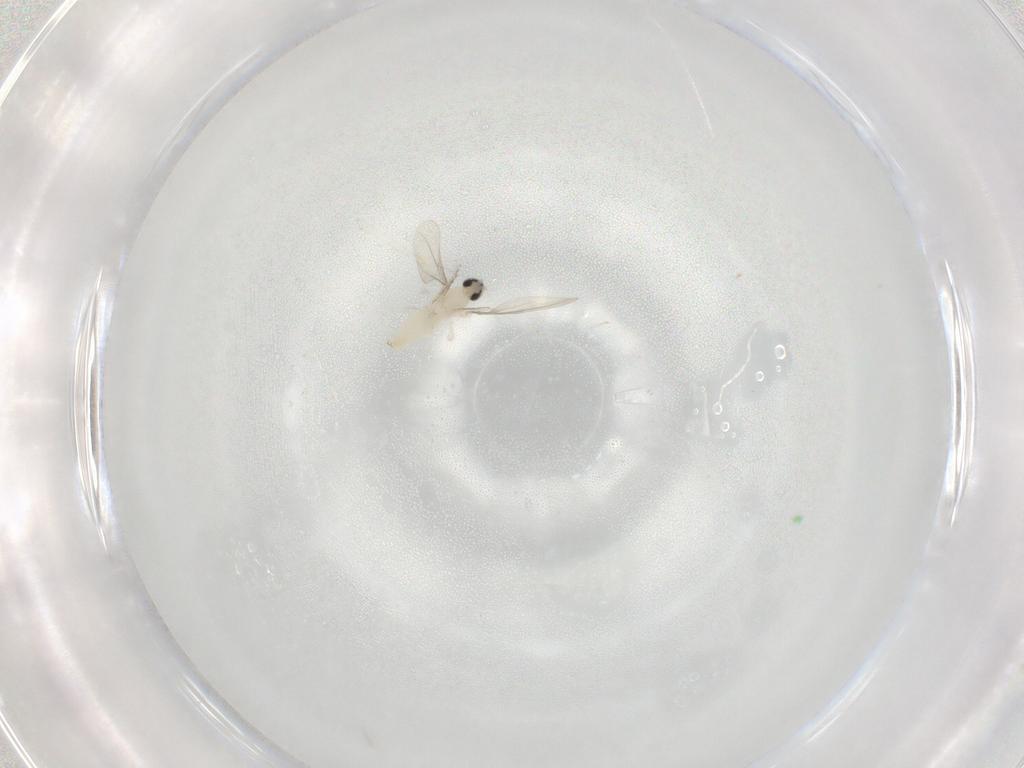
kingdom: Animalia
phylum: Arthropoda
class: Insecta
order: Diptera
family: Cecidomyiidae
